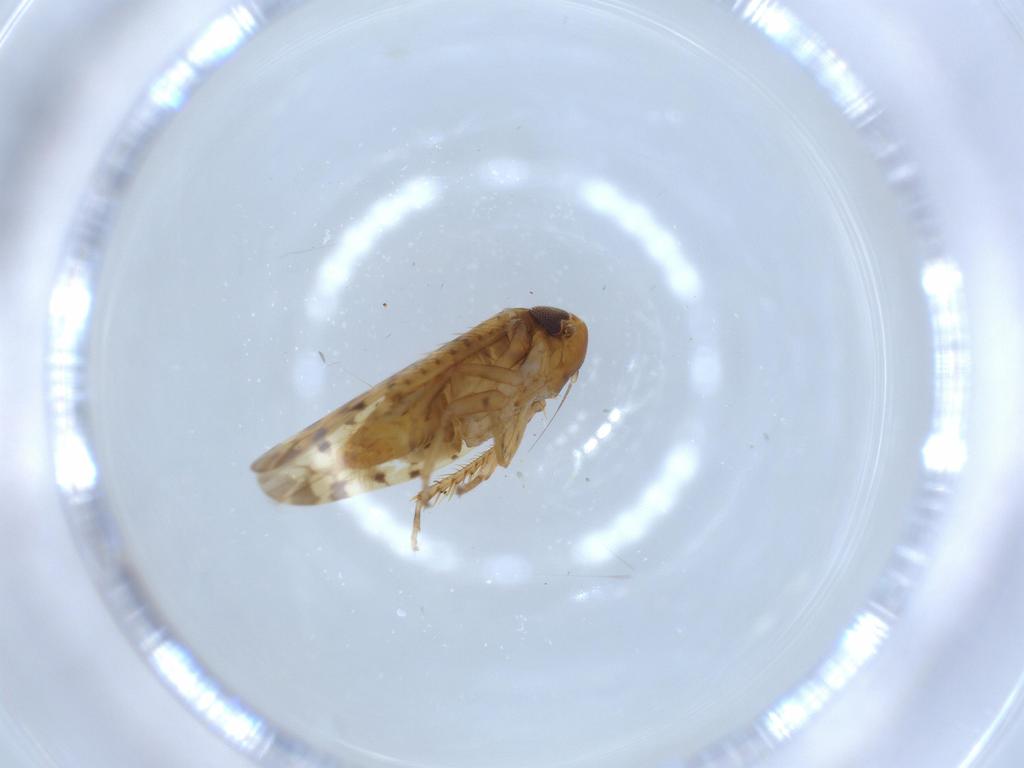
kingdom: Animalia
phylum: Arthropoda
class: Insecta
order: Hemiptera
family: Cicadellidae
